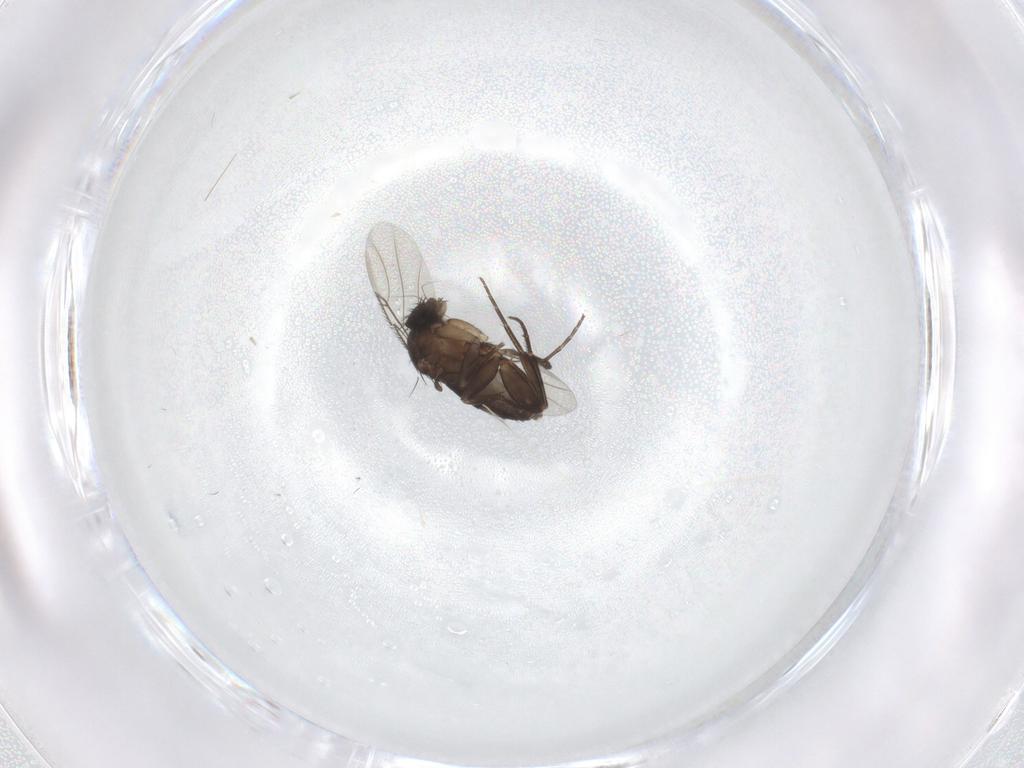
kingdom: Animalia
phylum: Arthropoda
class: Insecta
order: Diptera
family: Phoridae
